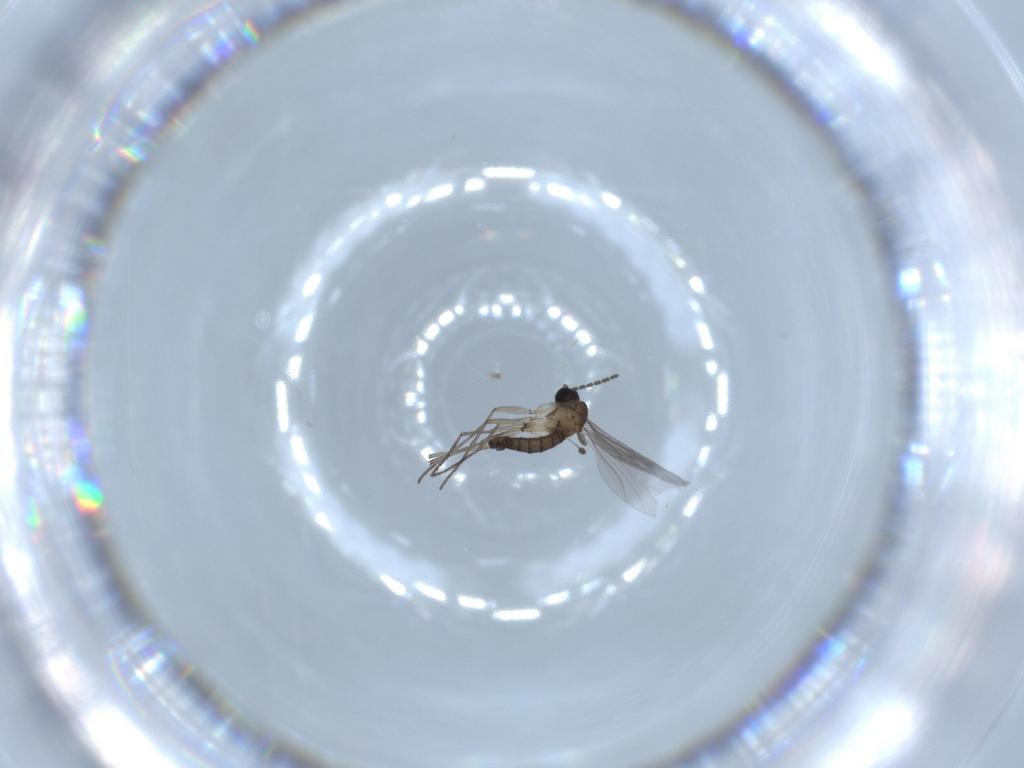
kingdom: Animalia
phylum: Arthropoda
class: Insecta
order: Diptera
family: Sciaridae
